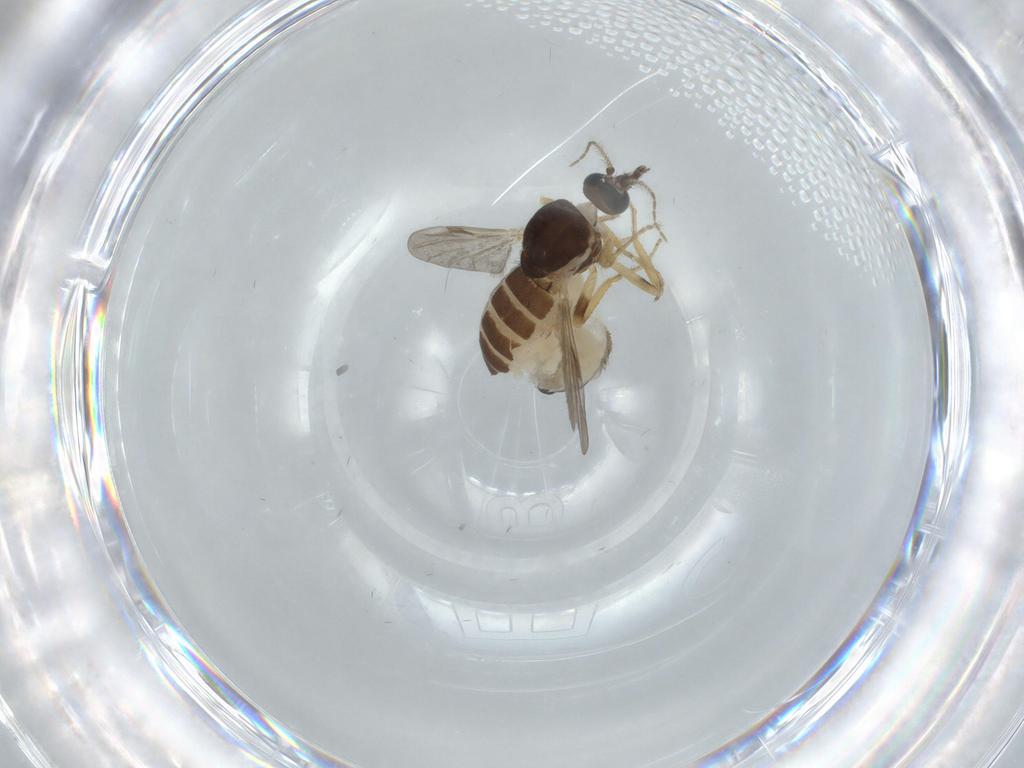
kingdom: Animalia
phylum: Arthropoda
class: Insecta
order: Diptera
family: Ceratopogonidae
